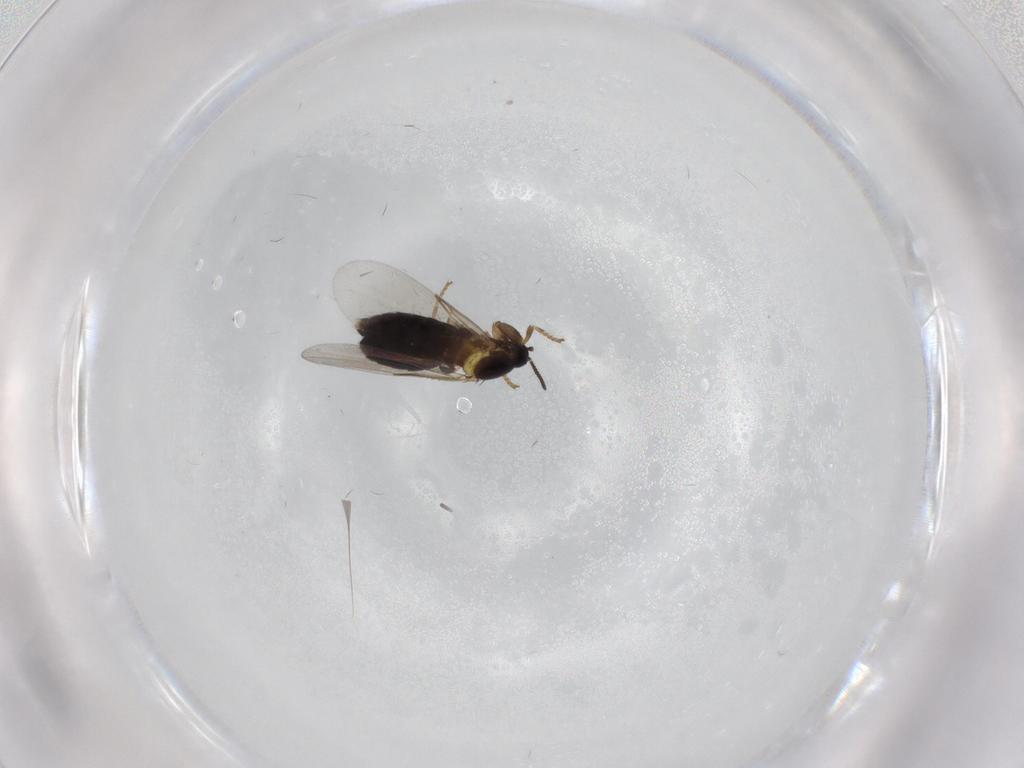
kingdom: Animalia
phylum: Arthropoda
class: Insecta
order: Diptera
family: Scatopsidae
